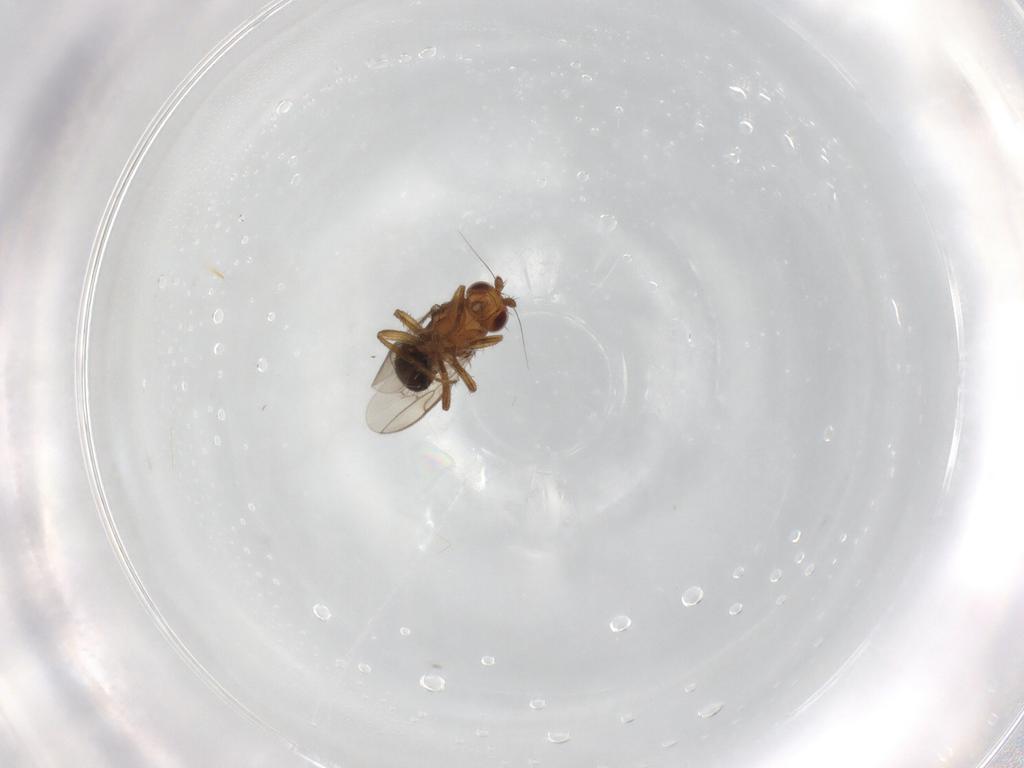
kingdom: Animalia
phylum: Arthropoda
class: Insecta
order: Diptera
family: Sphaeroceridae
